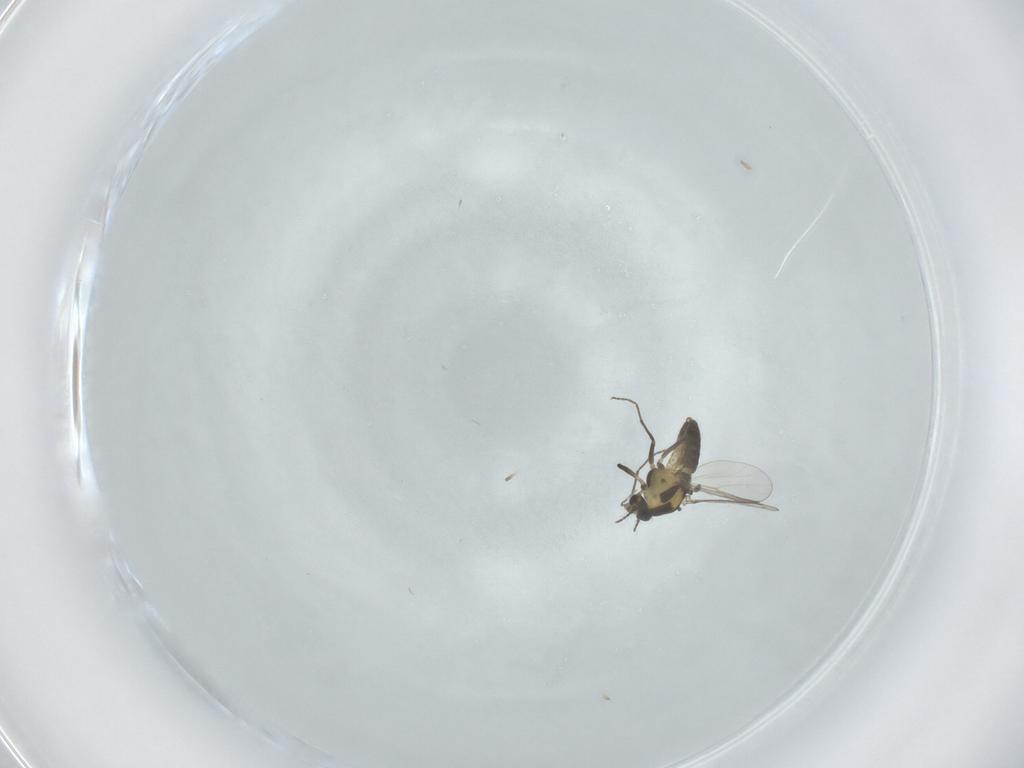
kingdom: Animalia
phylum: Arthropoda
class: Insecta
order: Diptera
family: Chironomidae
